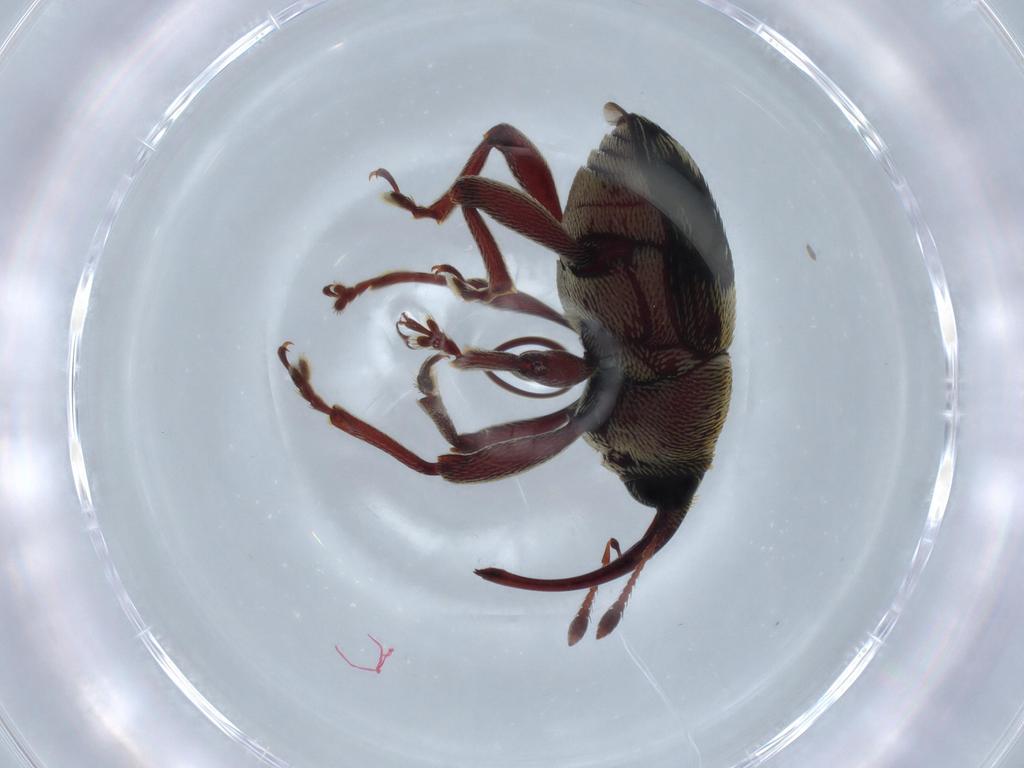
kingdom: Animalia
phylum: Arthropoda
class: Insecta
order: Coleoptera
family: Curculionidae
